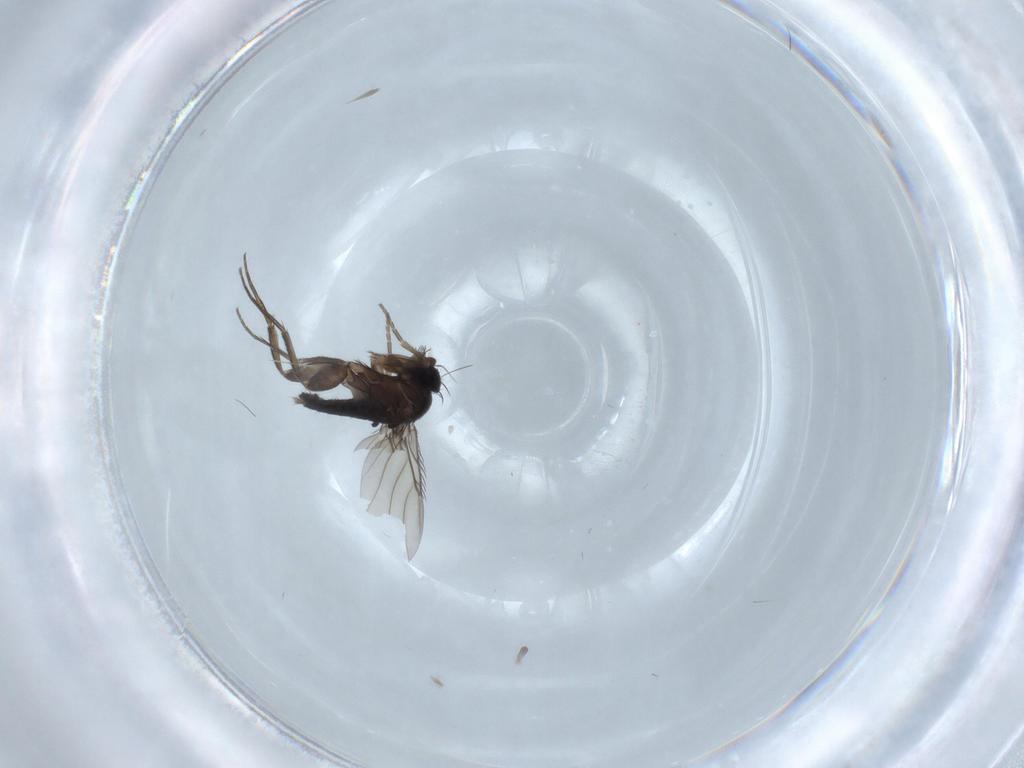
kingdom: Animalia
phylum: Arthropoda
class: Insecta
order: Diptera
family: Phoridae
